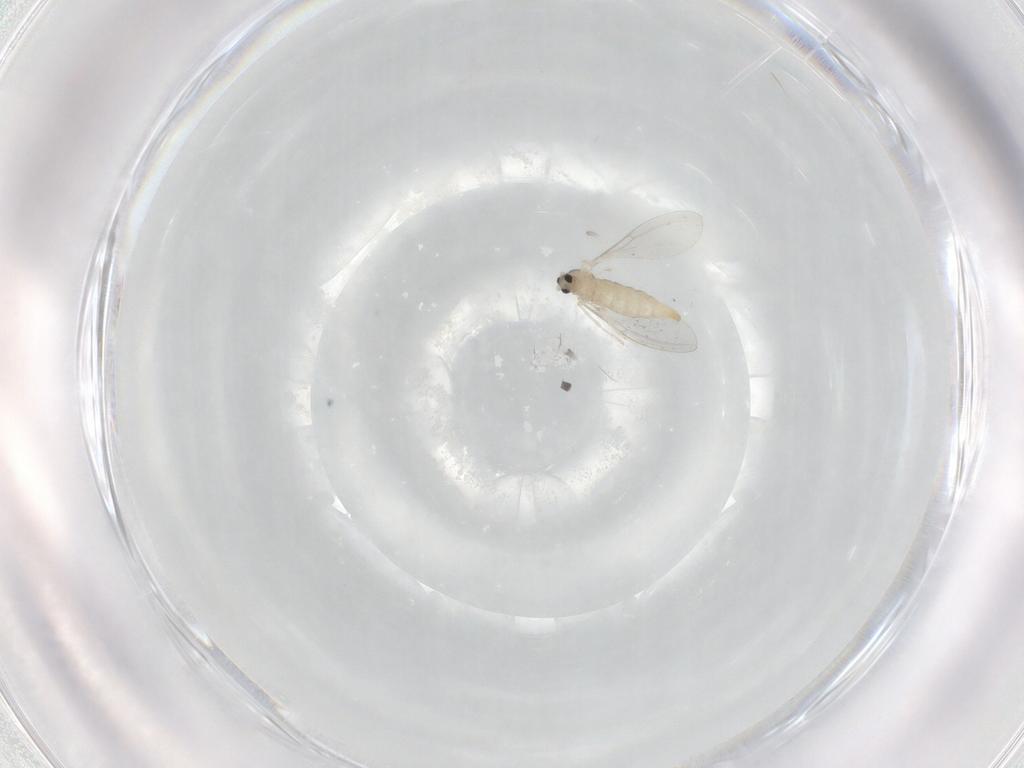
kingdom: Animalia
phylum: Arthropoda
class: Insecta
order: Diptera
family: Cecidomyiidae
